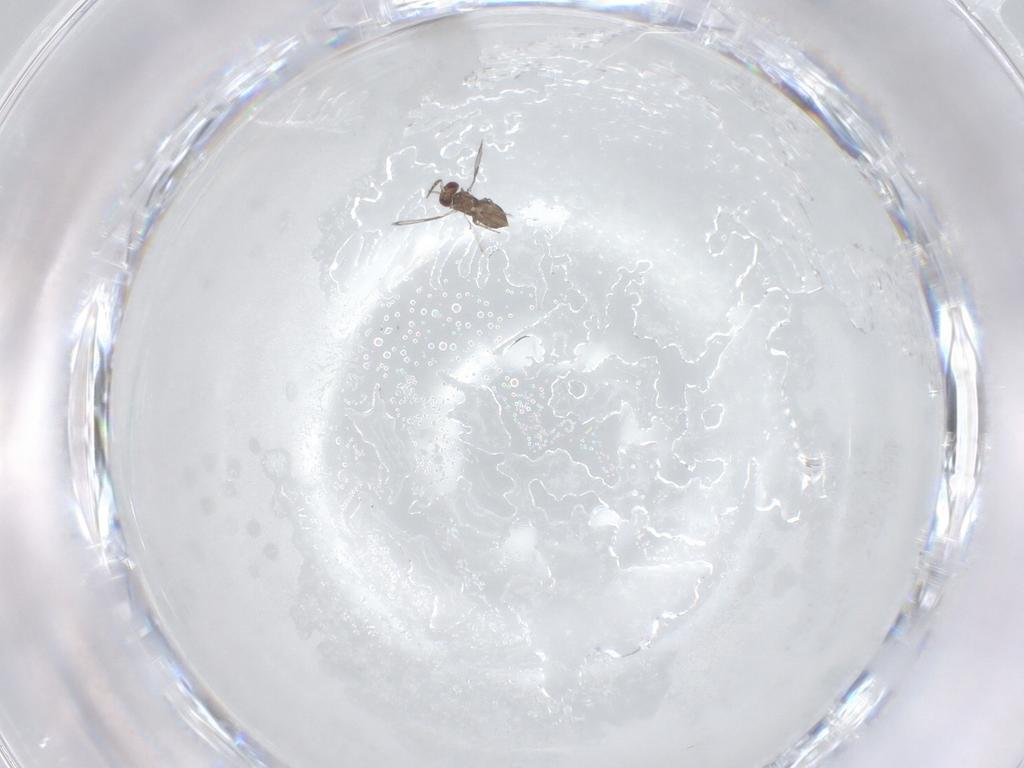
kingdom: Animalia
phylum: Arthropoda
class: Insecta
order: Hymenoptera
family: Trichogrammatidae
